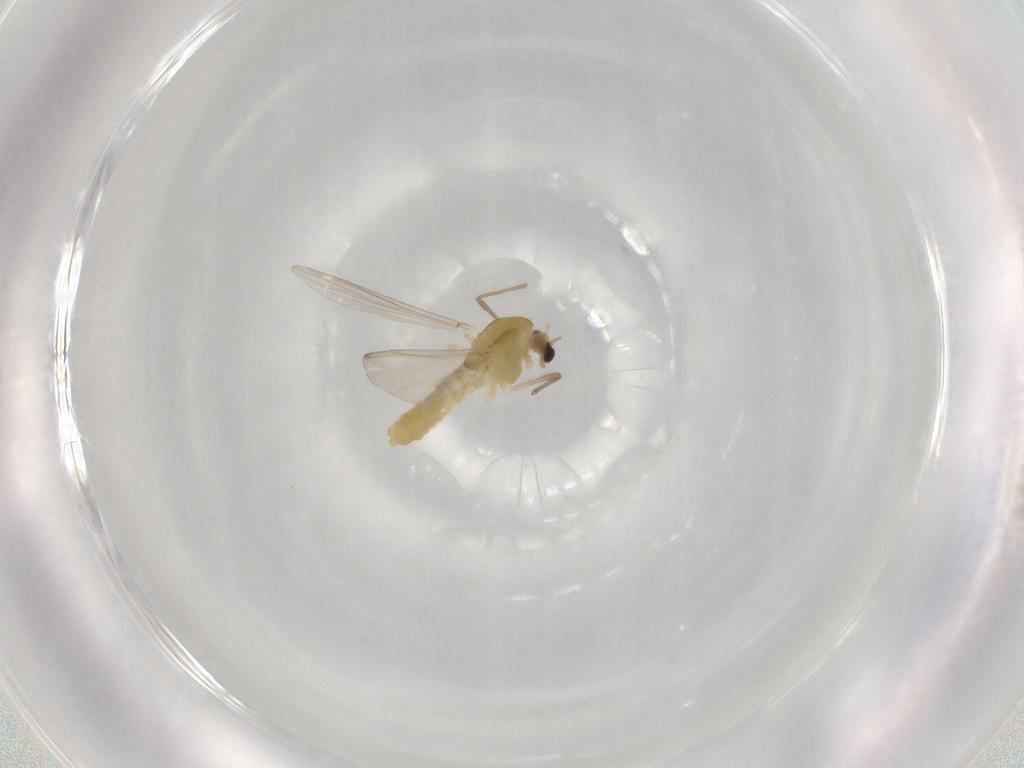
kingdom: Animalia
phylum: Arthropoda
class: Insecta
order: Diptera
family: Chironomidae
